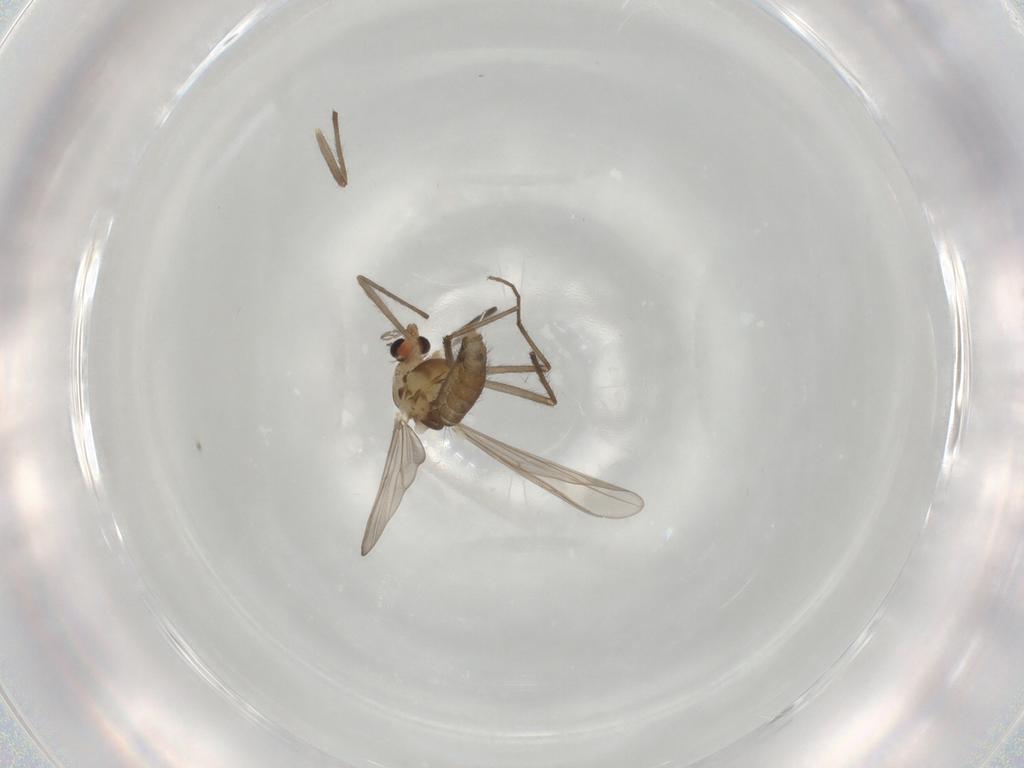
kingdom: Animalia
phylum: Arthropoda
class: Insecta
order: Diptera
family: Chironomidae
